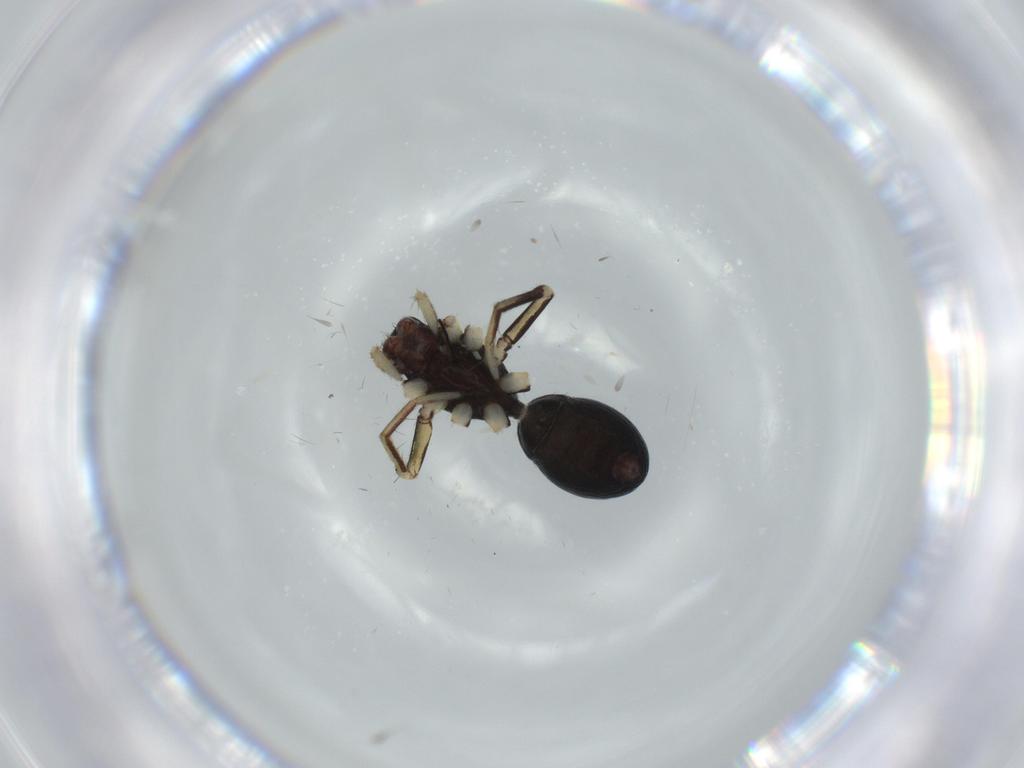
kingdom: Animalia
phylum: Arthropoda
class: Arachnida
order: Araneae
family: Corinnidae
